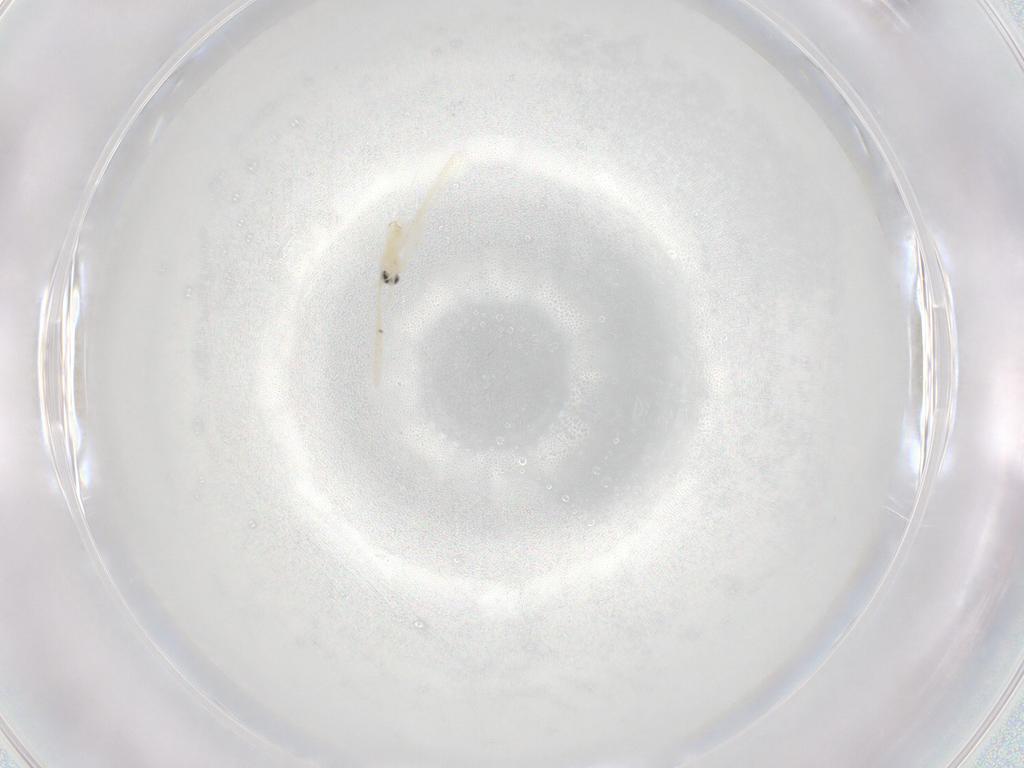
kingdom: Animalia
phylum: Arthropoda
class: Insecta
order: Diptera
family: Cecidomyiidae
